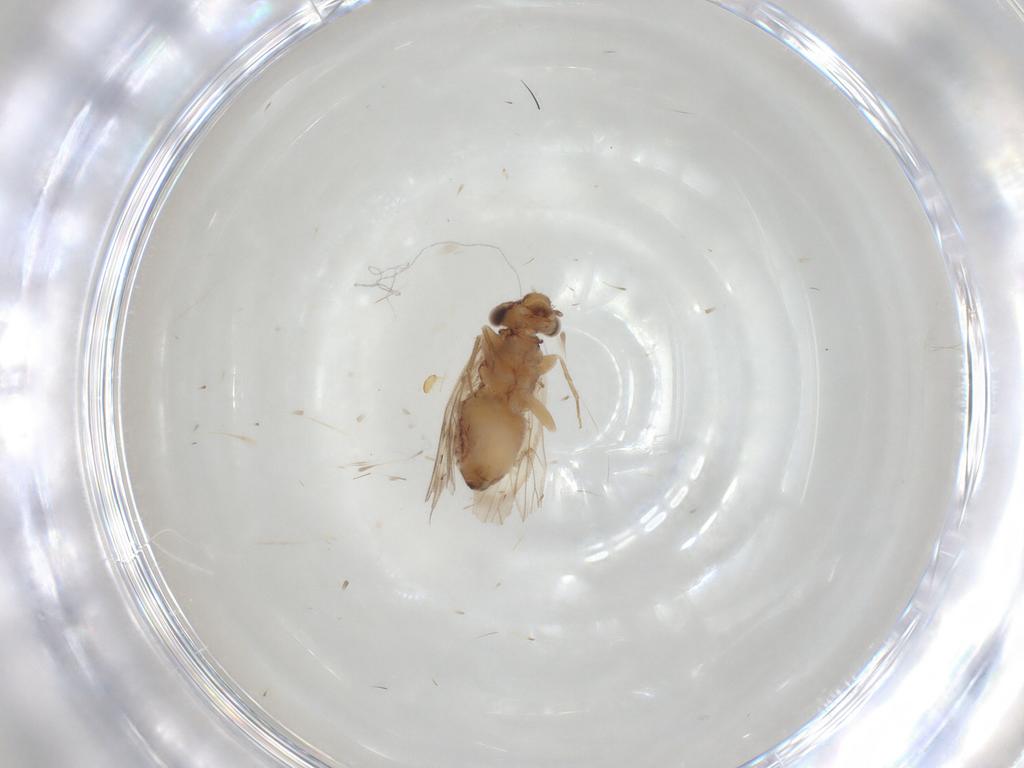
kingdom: Animalia
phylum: Arthropoda
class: Insecta
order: Psocodea
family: Lepidopsocidae
